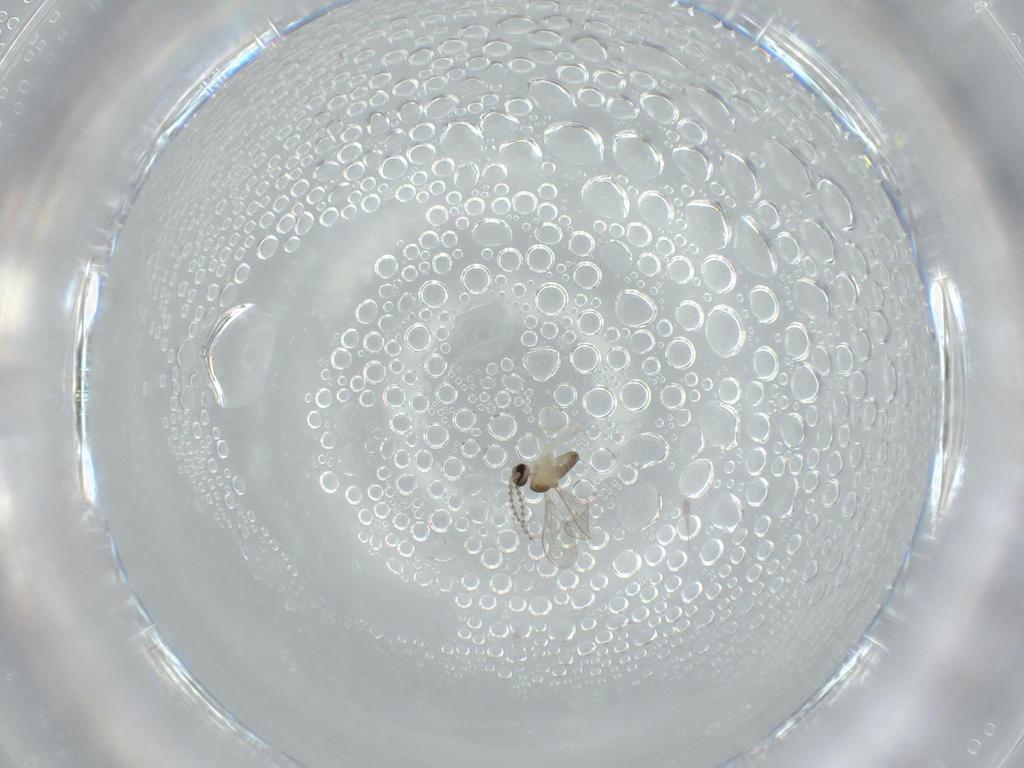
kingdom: Animalia
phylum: Arthropoda
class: Insecta
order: Diptera
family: Cecidomyiidae
